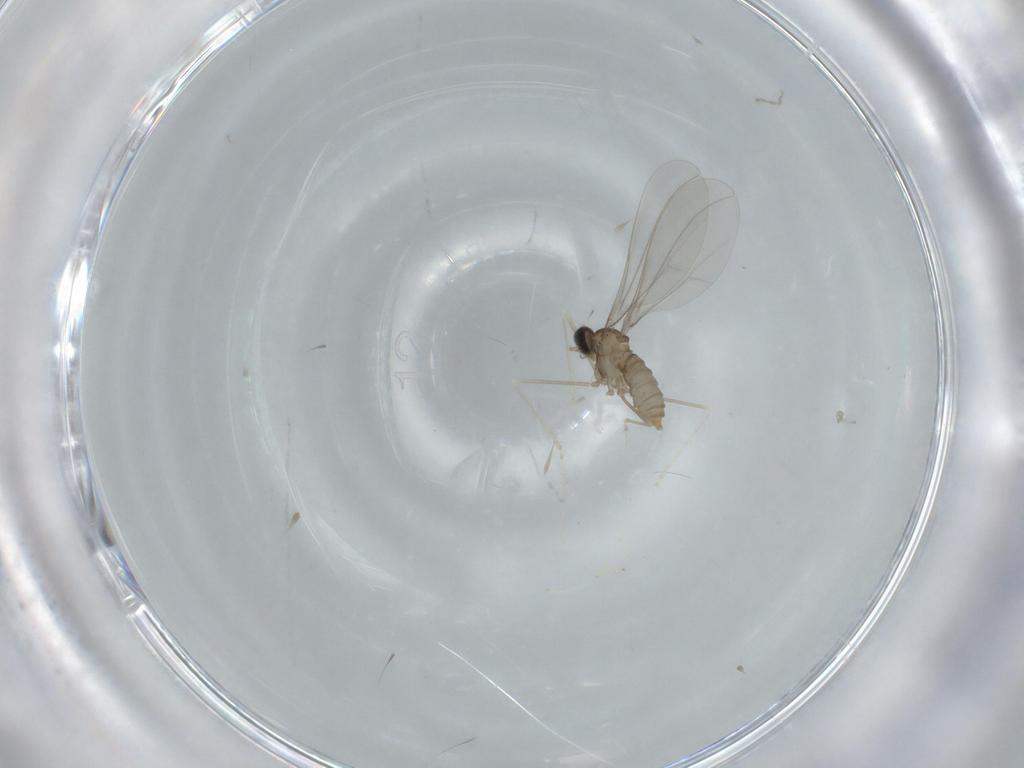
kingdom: Animalia
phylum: Arthropoda
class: Insecta
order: Diptera
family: Cecidomyiidae
